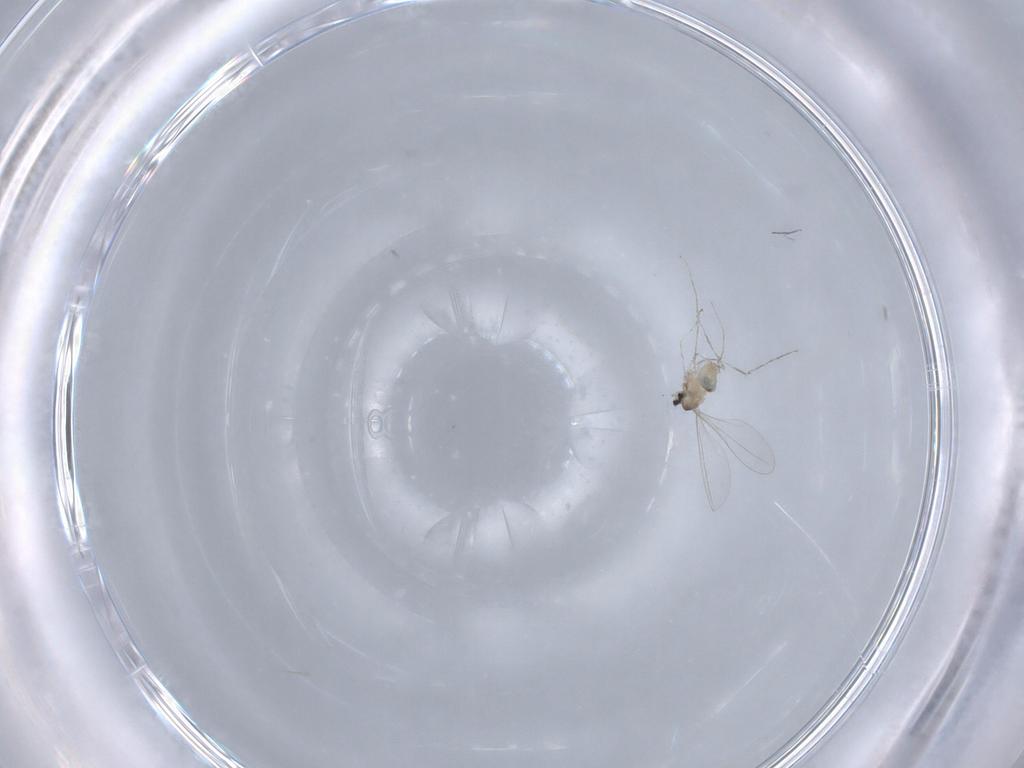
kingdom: Animalia
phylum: Arthropoda
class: Insecta
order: Diptera
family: Cecidomyiidae
